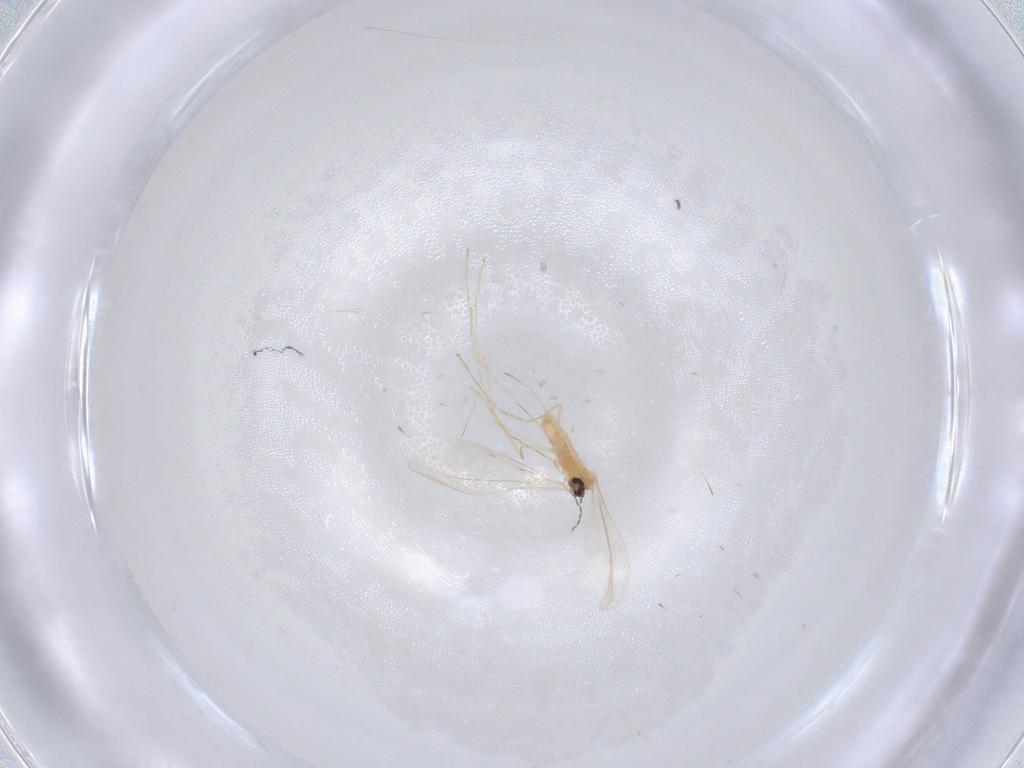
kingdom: Animalia
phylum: Arthropoda
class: Insecta
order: Diptera
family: Cecidomyiidae
